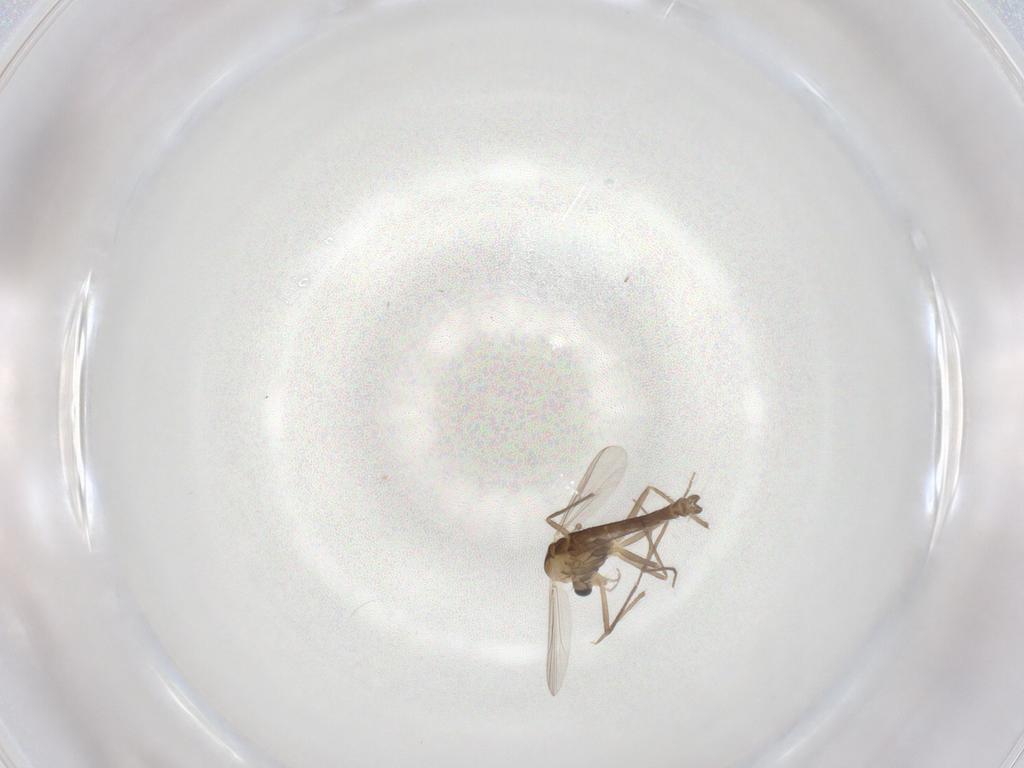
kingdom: Animalia
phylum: Arthropoda
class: Insecta
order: Diptera
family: Chironomidae
